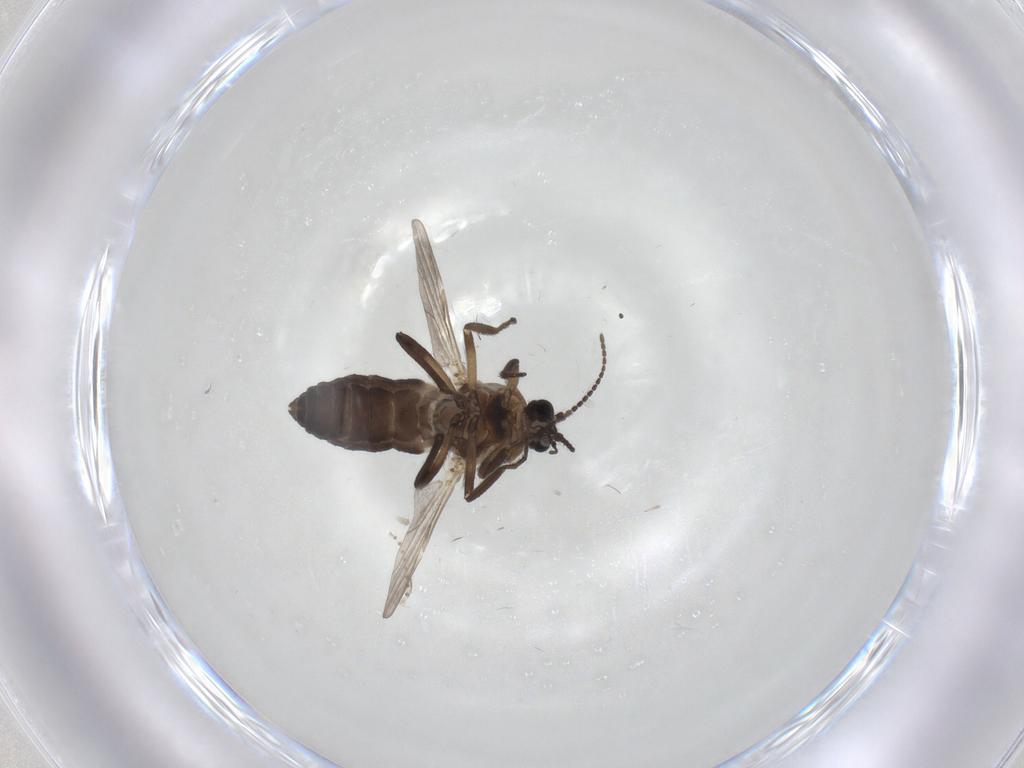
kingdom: Animalia
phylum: Arthropoda
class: Insecta
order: Diptera
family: Ceratopogonidae
